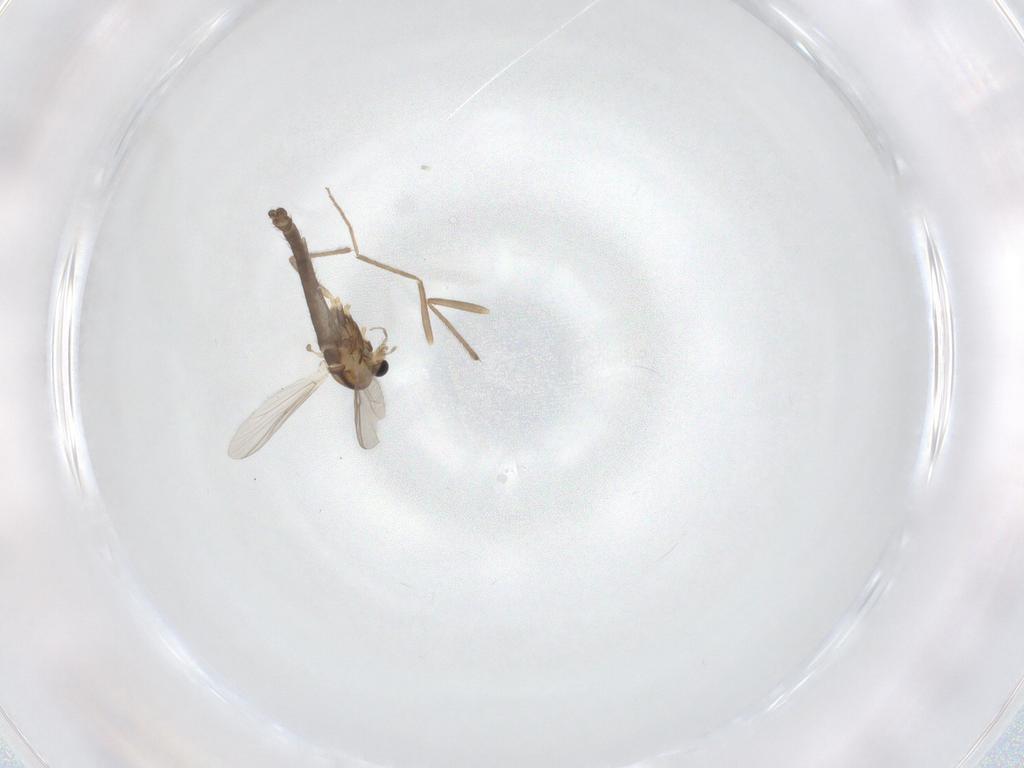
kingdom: Animalia
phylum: Arthropoda
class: Insecta
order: Diptera
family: Chironomidae
